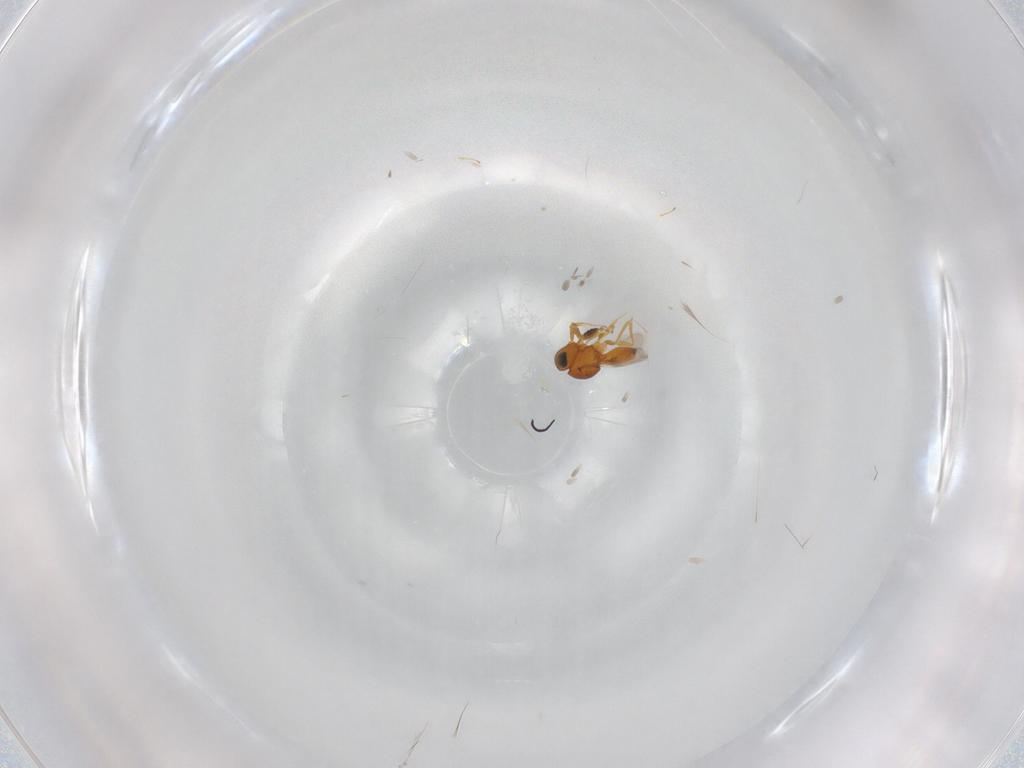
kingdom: Animalia
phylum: Arthropoda
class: Insecta
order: Hymenoptera
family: Scelionidae
